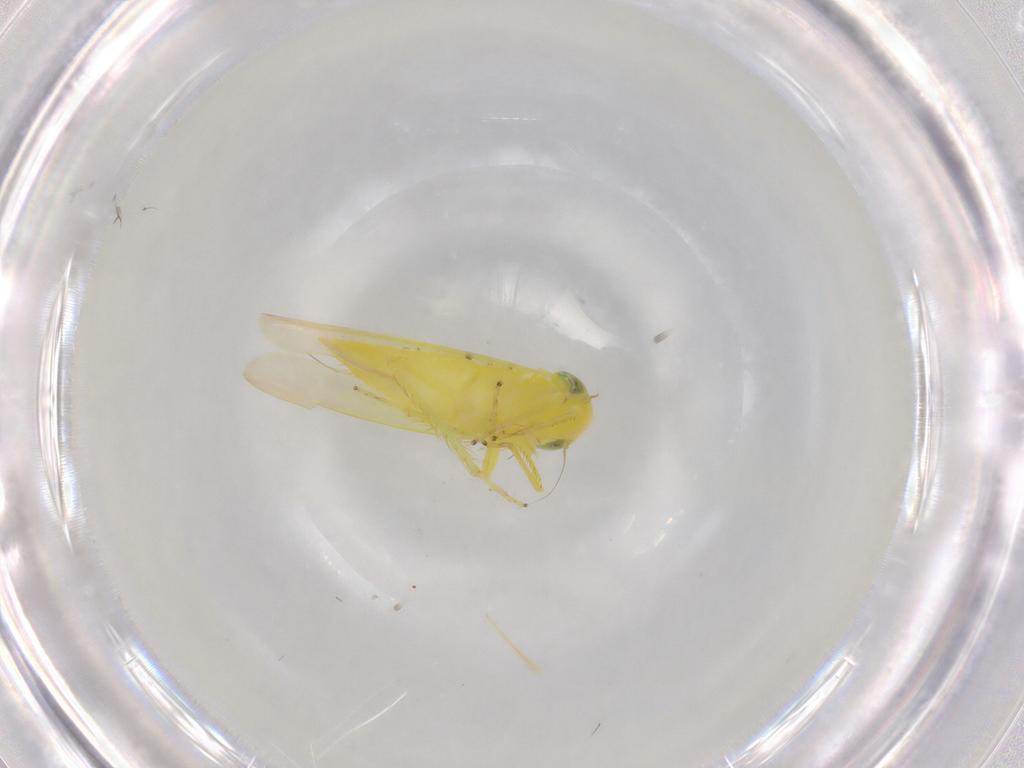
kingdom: Animalia
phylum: Arthropoda
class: Insecta
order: Hemiptera
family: Cicadellidae
